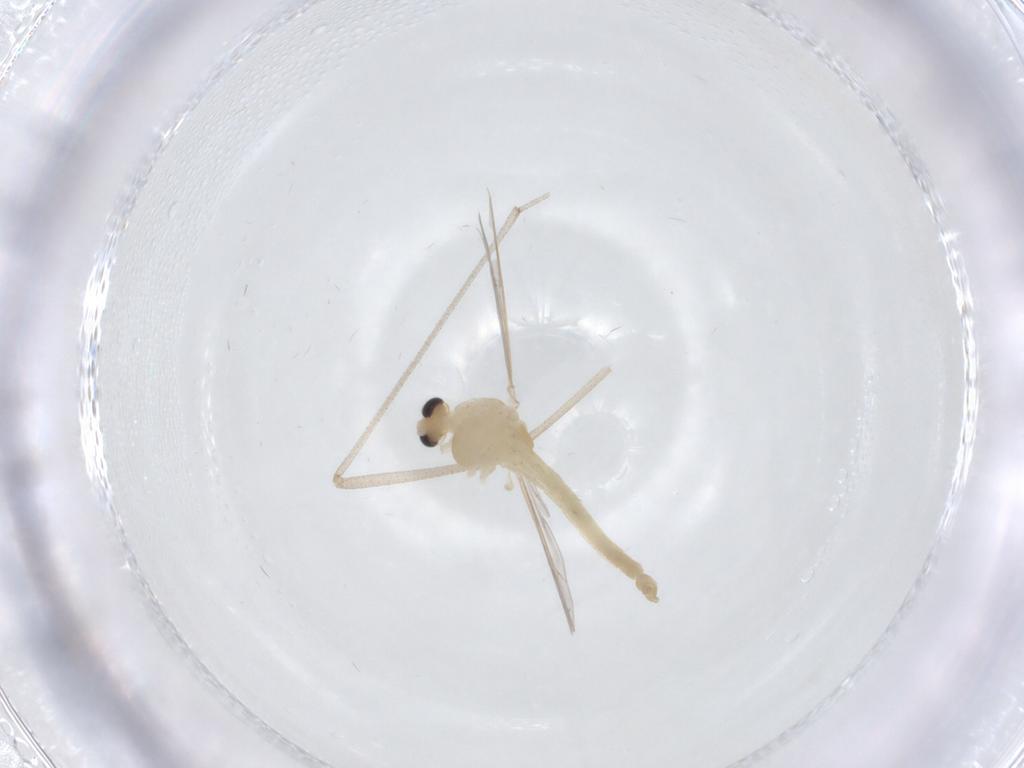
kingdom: Animalia
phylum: Arthropoda
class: Insecta
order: Diptera
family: Chironomidae
